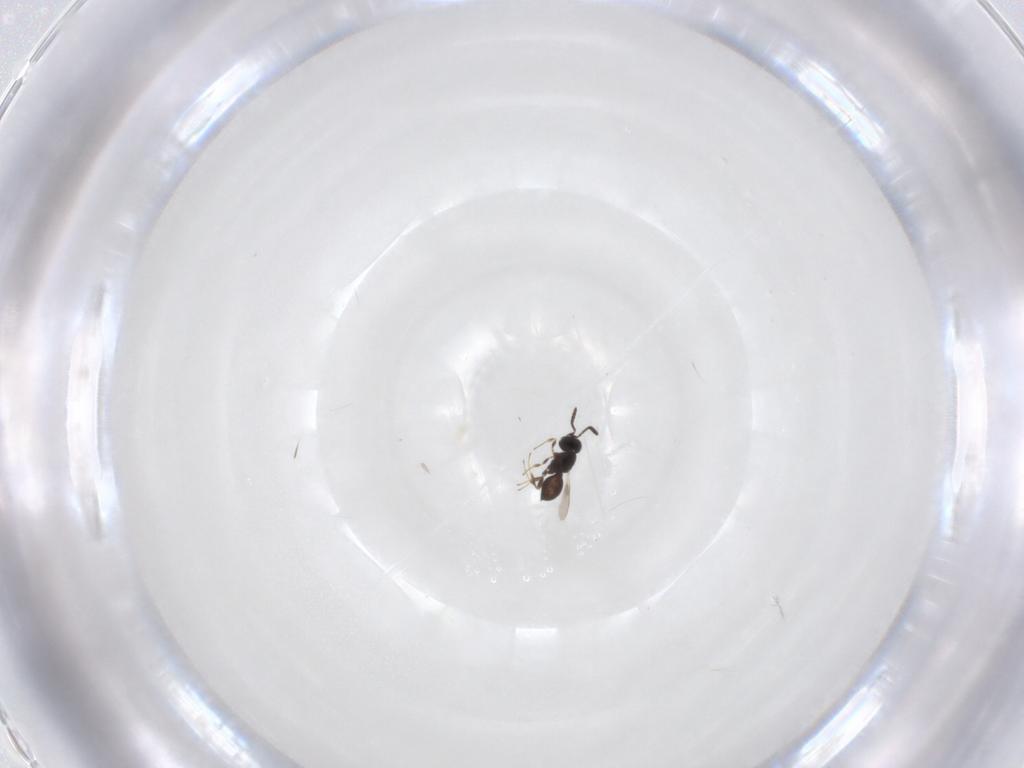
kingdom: Animalia
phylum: Arthropoda
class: Insecta
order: Hymenoptera
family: Scelionidae
